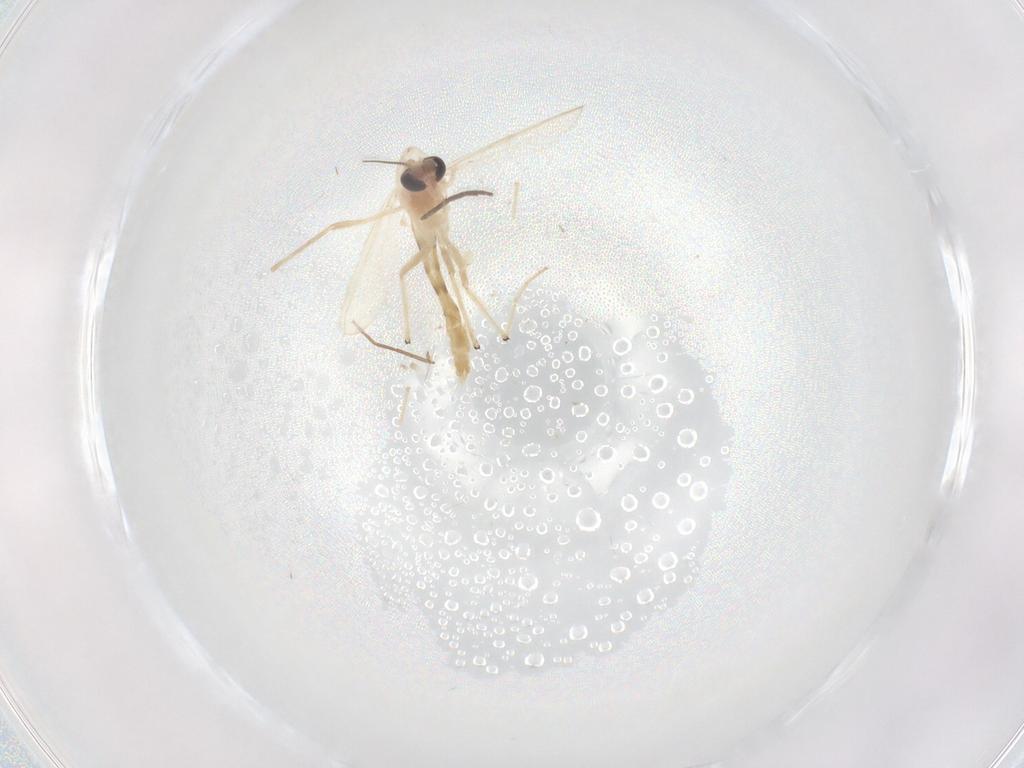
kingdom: Animalia
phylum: Arthropoda
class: Insecta
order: Diptera
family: Chironomidae
